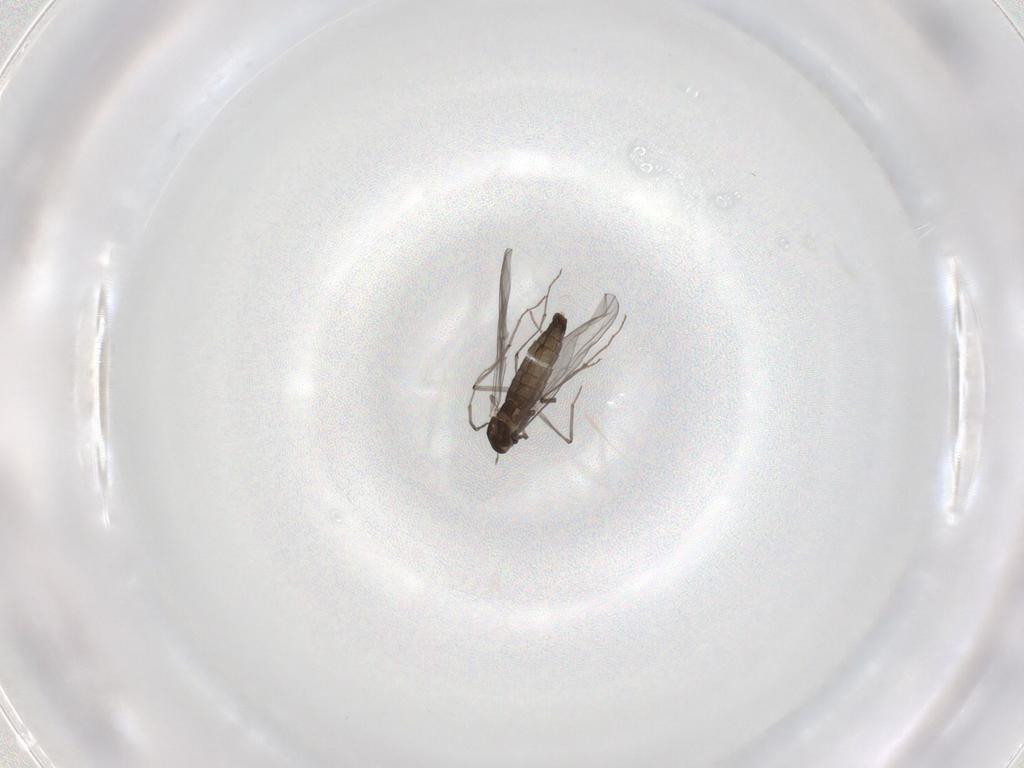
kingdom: Animalia
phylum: Arthropoda
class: Insecta
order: Diptera
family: Chironomidae
